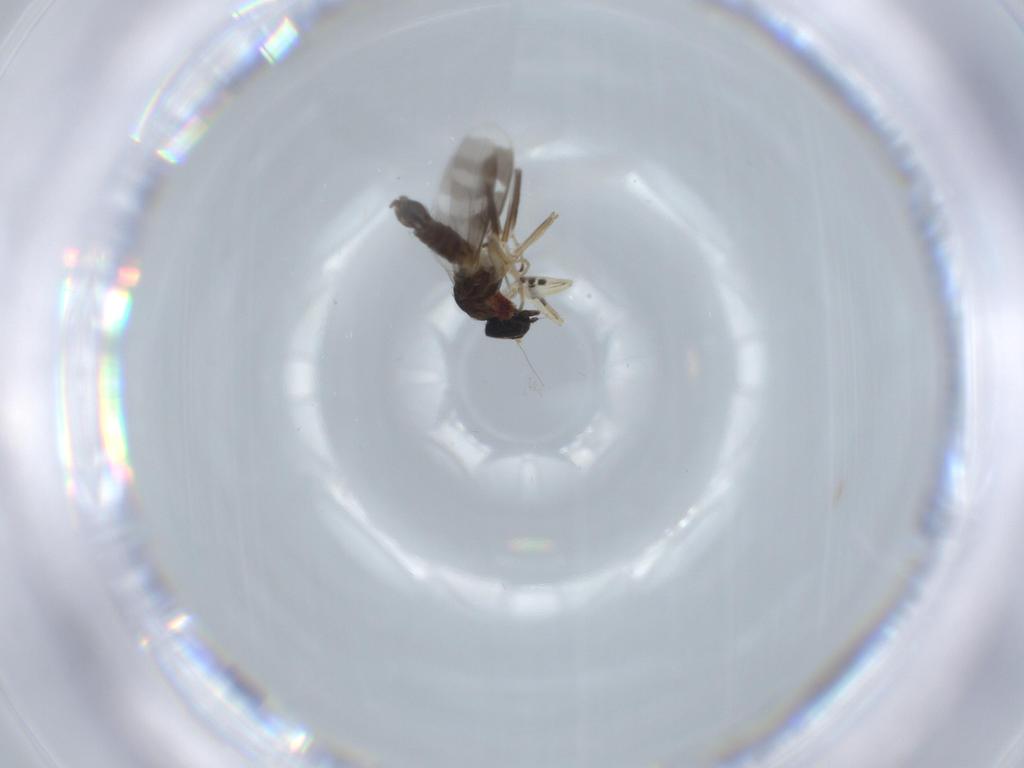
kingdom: Animalia
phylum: Arthropoda
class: Insecta
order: Diptera
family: Hybotidae
